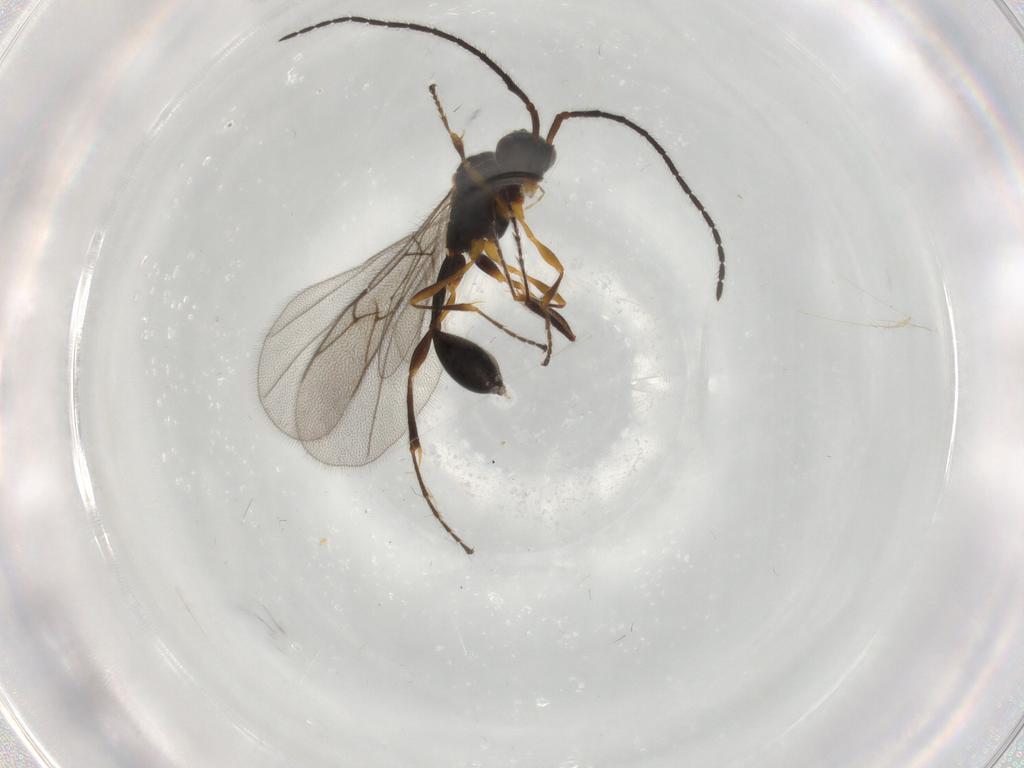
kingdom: Animalia
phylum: Arthropoda
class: Insecta
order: Hymenoptera
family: Diapriidae
